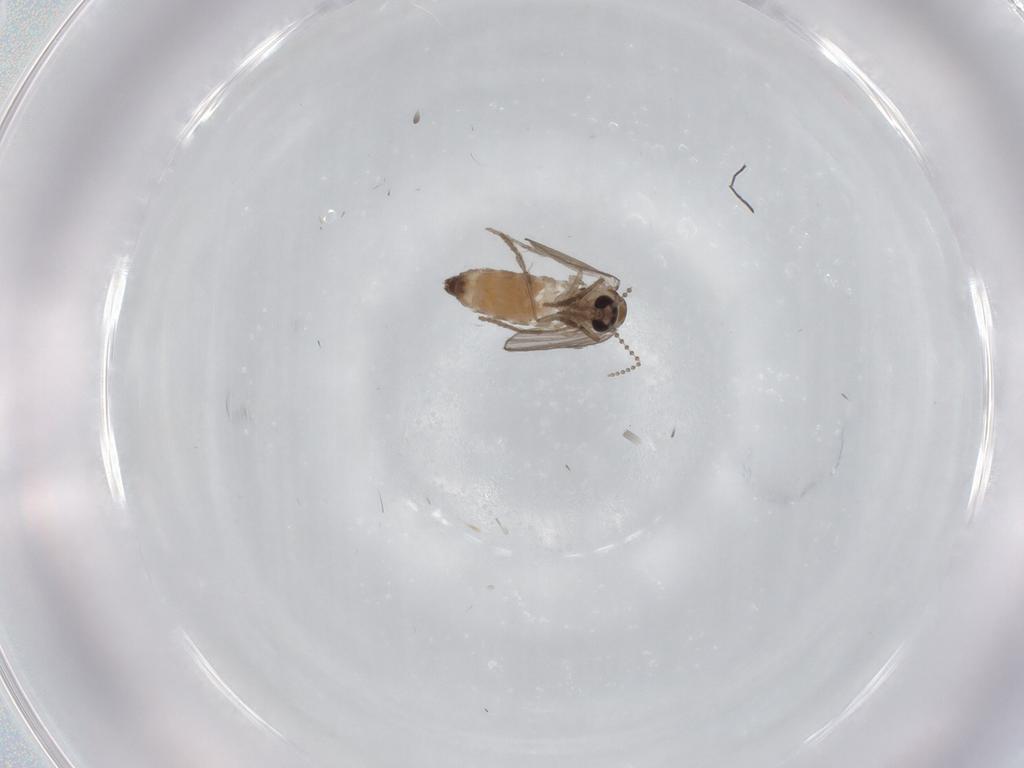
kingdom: Animalia
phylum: Arthropoda
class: Insecta
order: Diptera
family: Psychodidae
